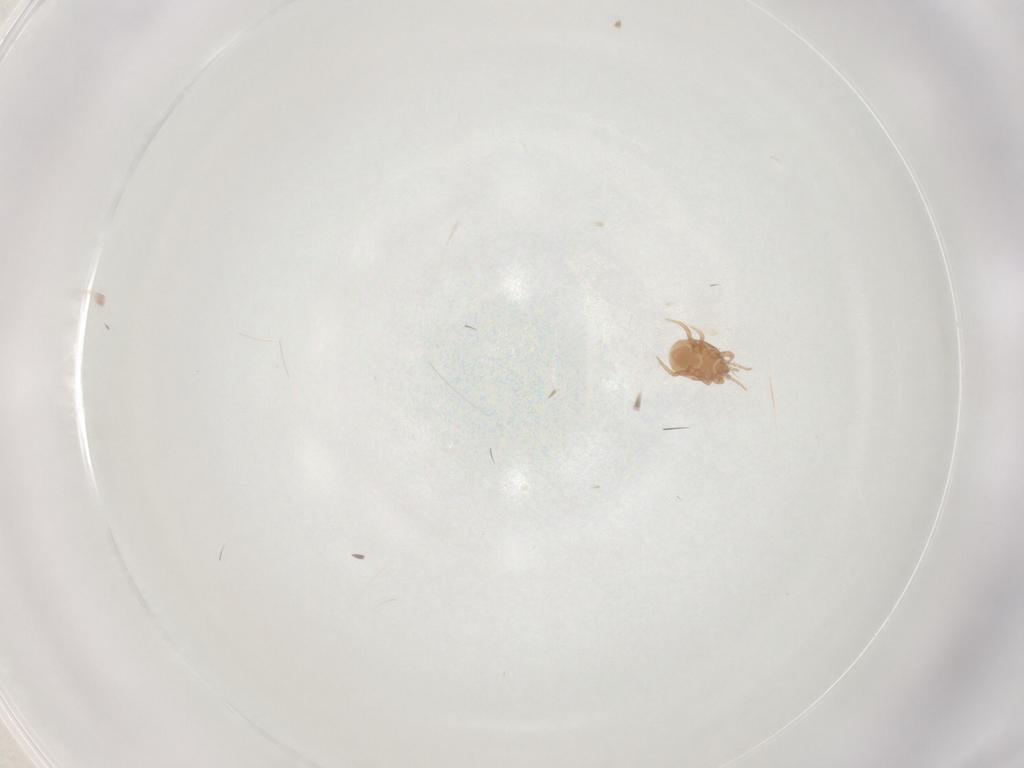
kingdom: Animalia
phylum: Arthropoda
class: Arachnida
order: Mesostigmata
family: Macrochelidae
